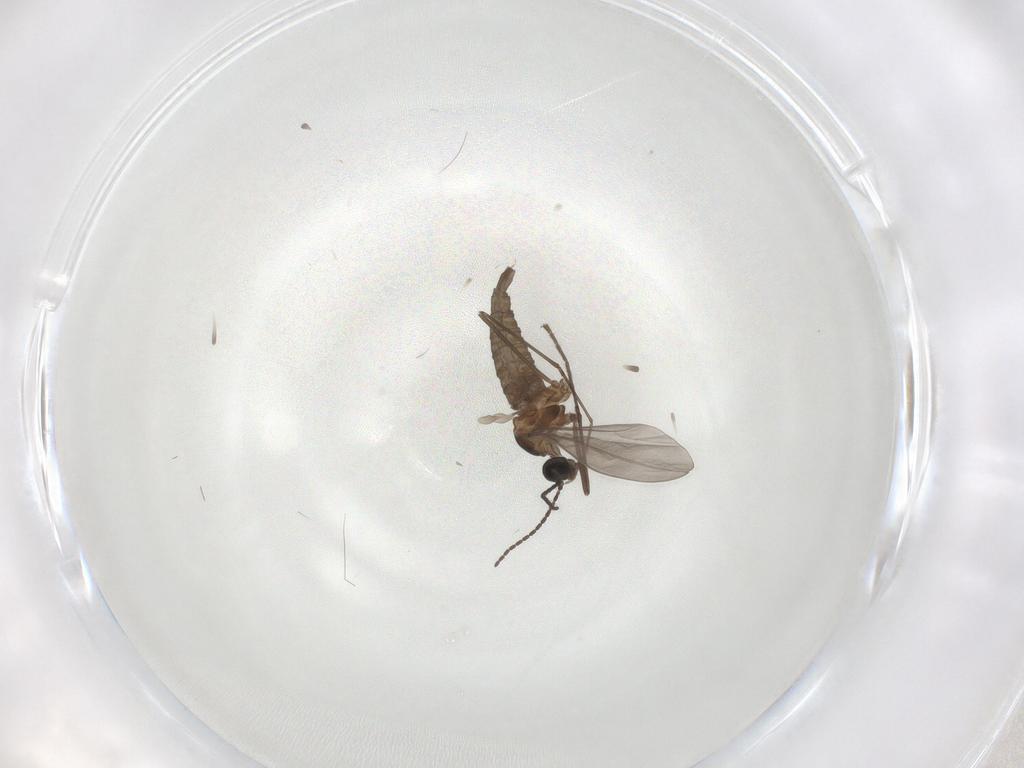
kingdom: Animalia
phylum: Arthropoda
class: Insecta
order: Diptera
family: Cecidomyiidae
